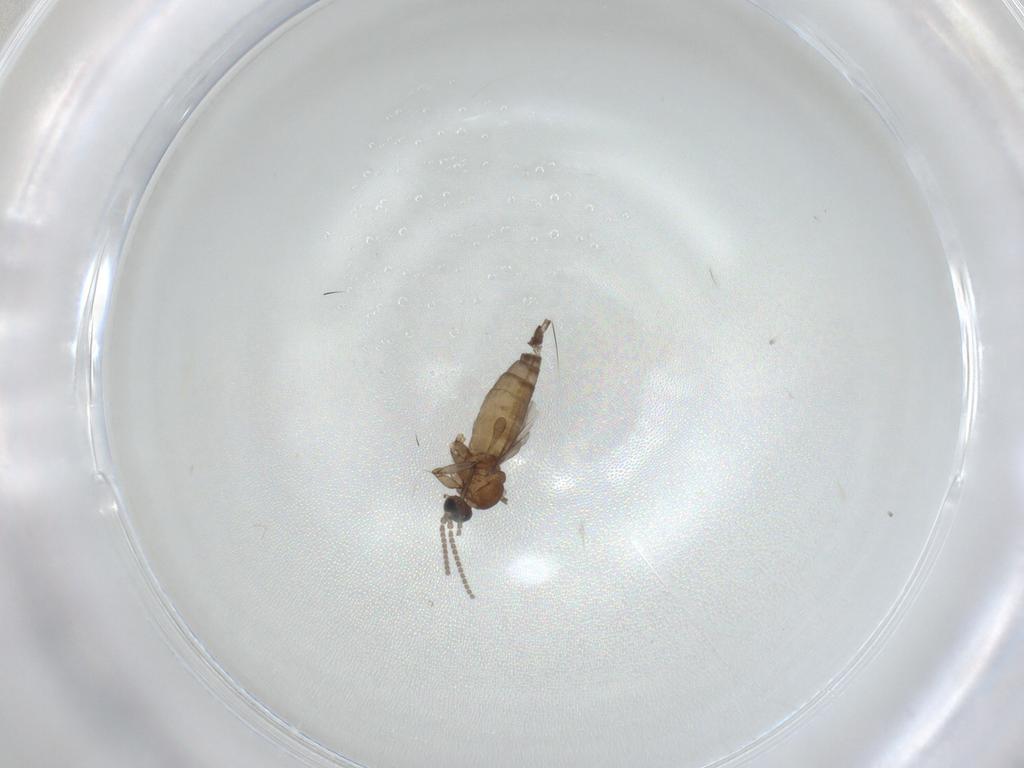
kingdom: Animalia
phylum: Arthropoda
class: Insecta
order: Diptera
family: Sciaridae
